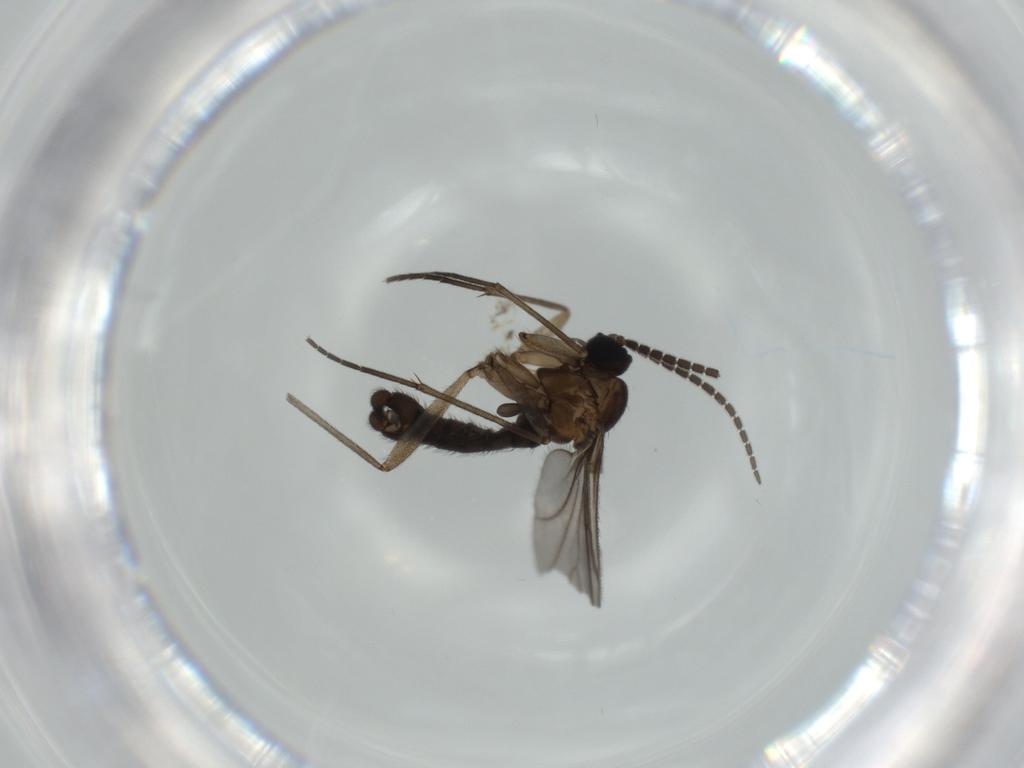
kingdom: Animalia
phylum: Arthropoda
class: Insecta
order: Diptera
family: Sciaridae
